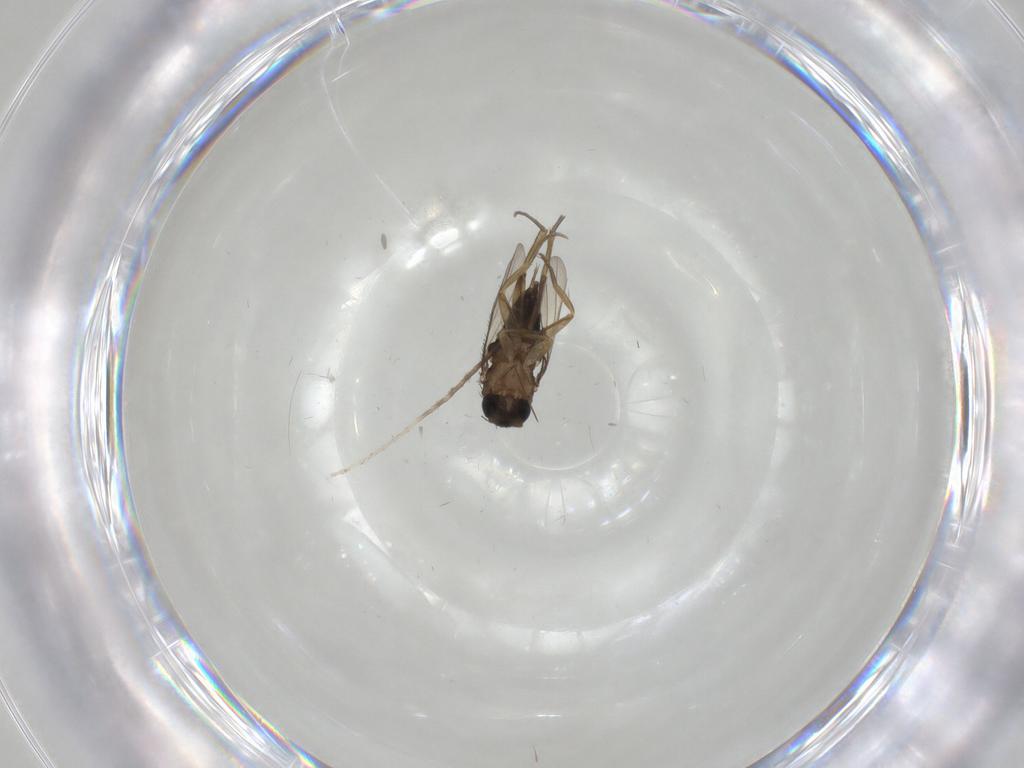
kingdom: Animalia
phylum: Arthropoda
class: Insecta
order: Diptera
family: Phoridae
